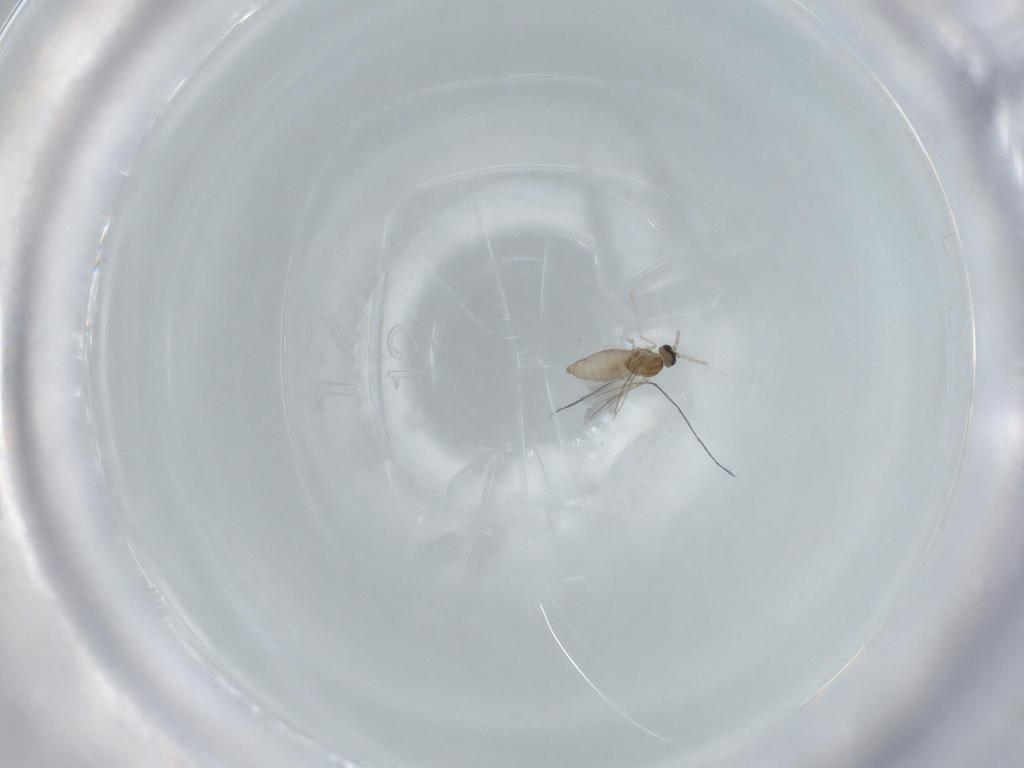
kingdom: Animalia
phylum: Arthropoda
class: Insecta
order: Diptera
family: Cecidomyiidae
